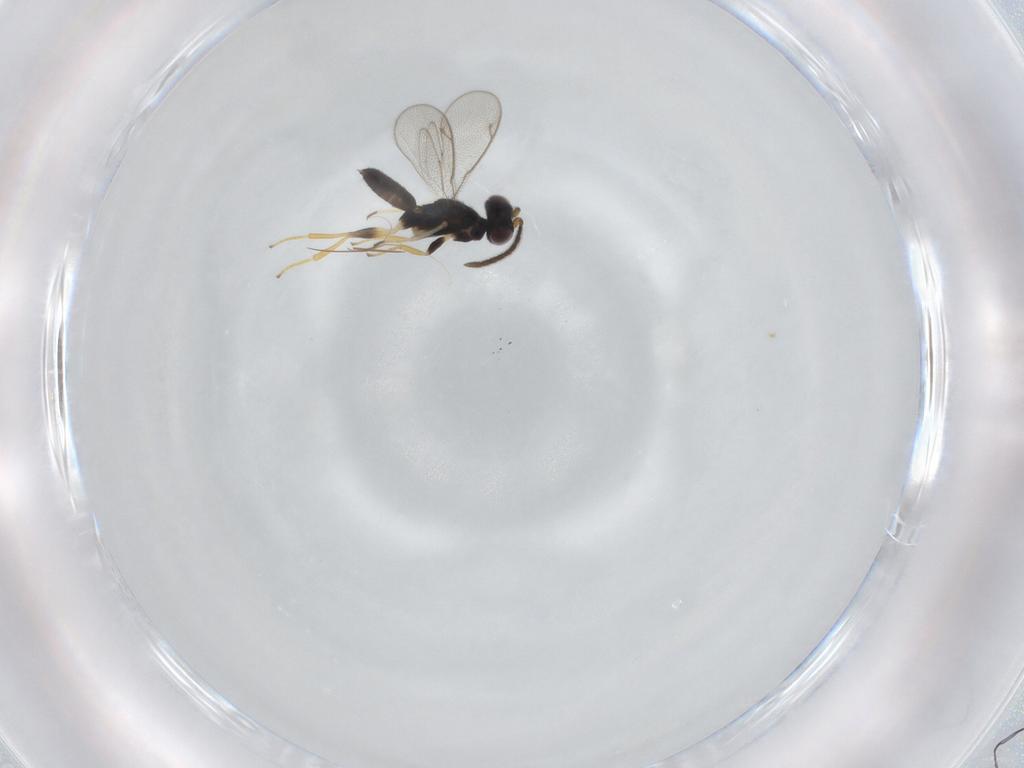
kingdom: Animalia
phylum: Arthropoda
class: Insecta
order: Hymenoptera
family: Eupelmidae
